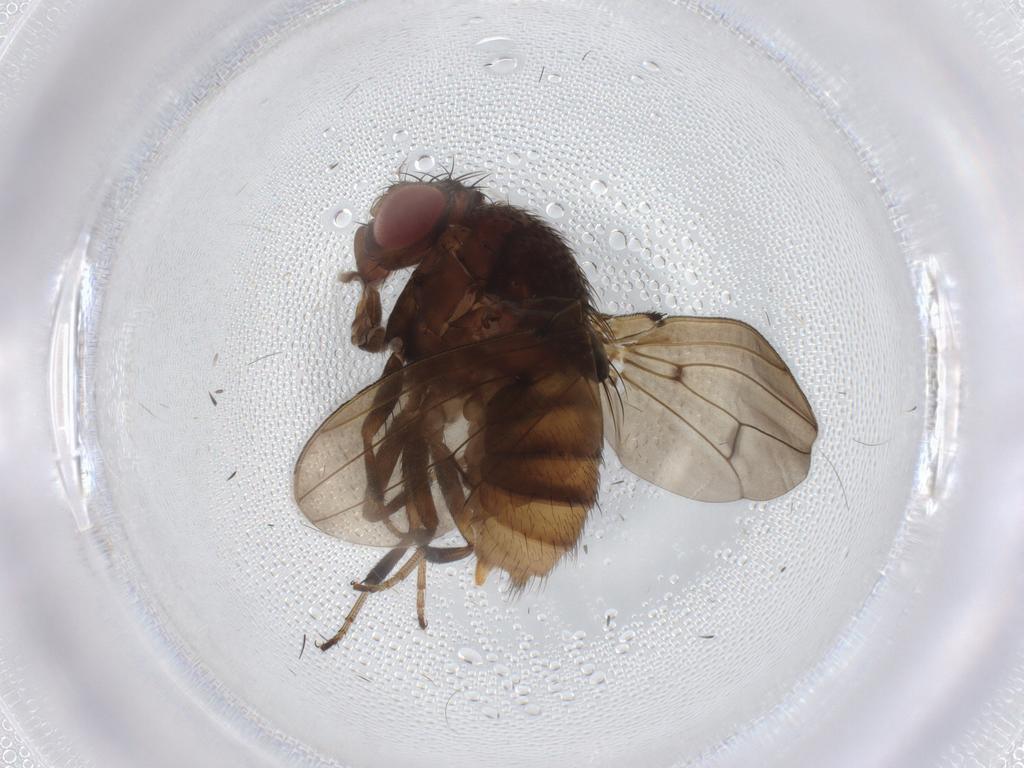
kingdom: Animalia
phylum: Arthropoda
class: Insecta
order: Diptera
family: Drosophilidae
